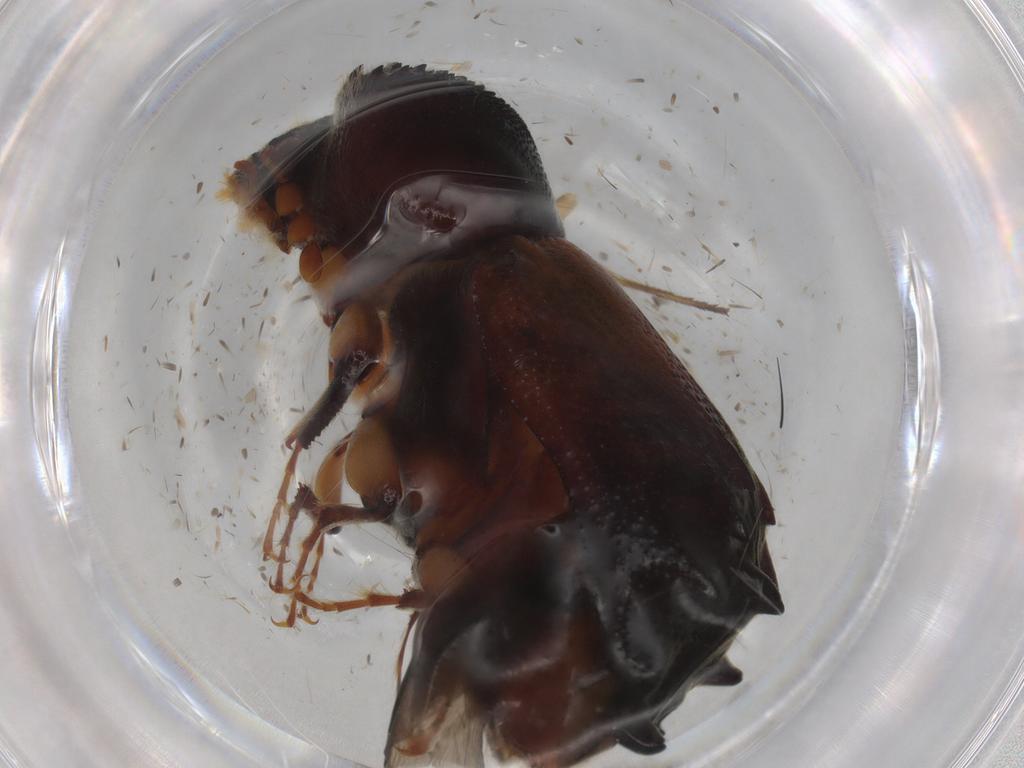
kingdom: Animalia
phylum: Arthropoda
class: Insecta
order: Coleoptera
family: Bostrichidae
